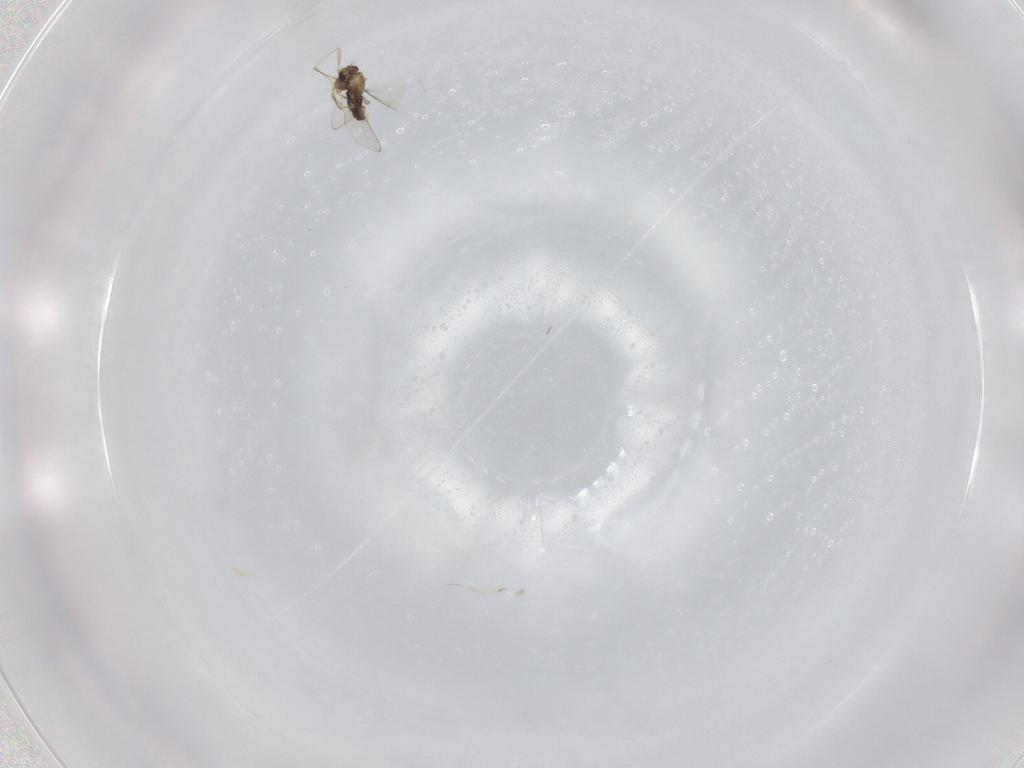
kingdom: Animalia
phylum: Arthropoda
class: Insecta
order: Diptera
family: Chironomidae
